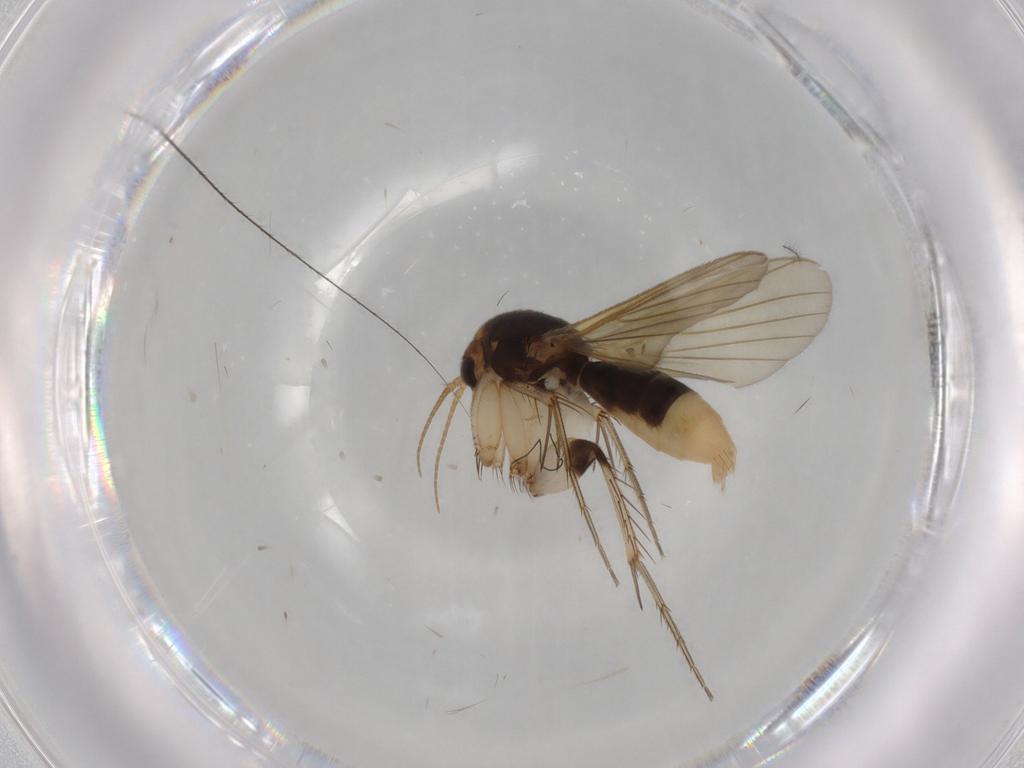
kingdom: Animalia
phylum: Arthropoda
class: Insecta
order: Diptera
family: Mycetophilidae
